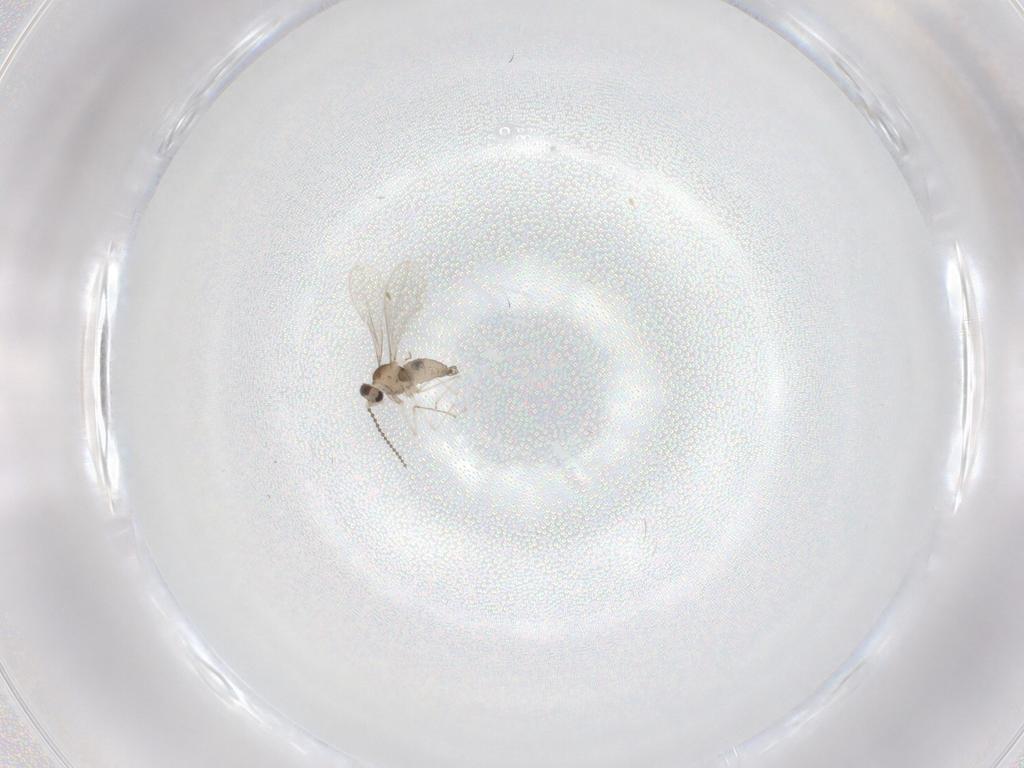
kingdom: Animalia
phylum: Arthropoda
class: Insecta
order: Diptera
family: Cecidomyiidae
